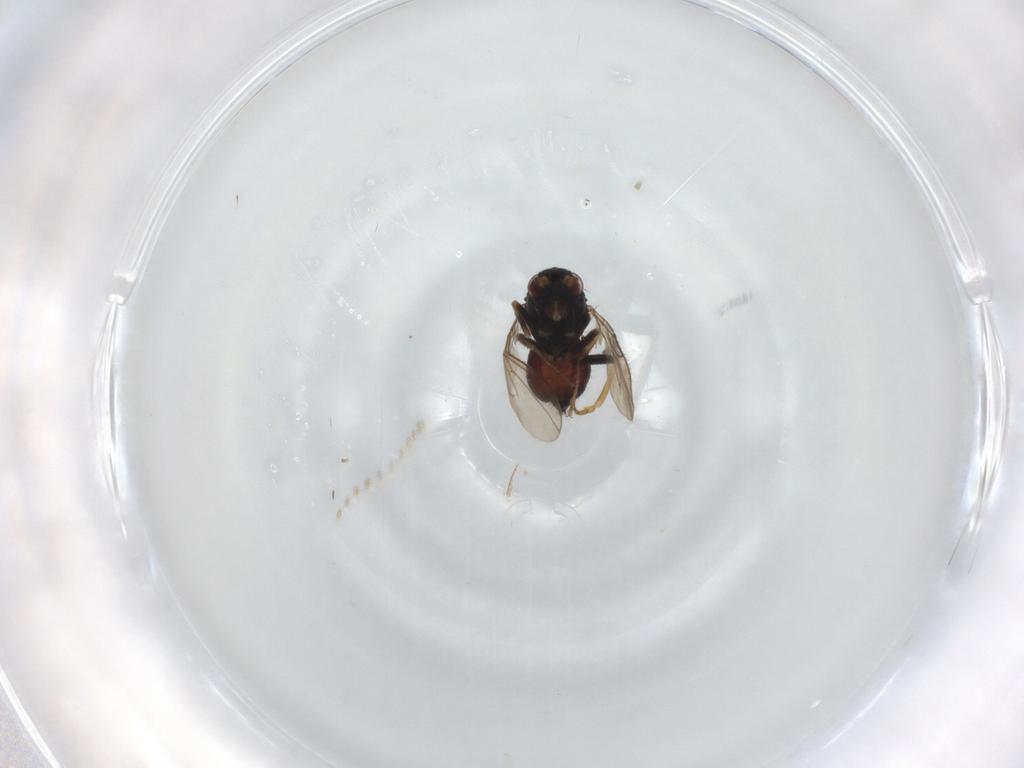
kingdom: Animalia
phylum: Arthropoda
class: Insecta
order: Diptera
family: Sphaeroceridae
